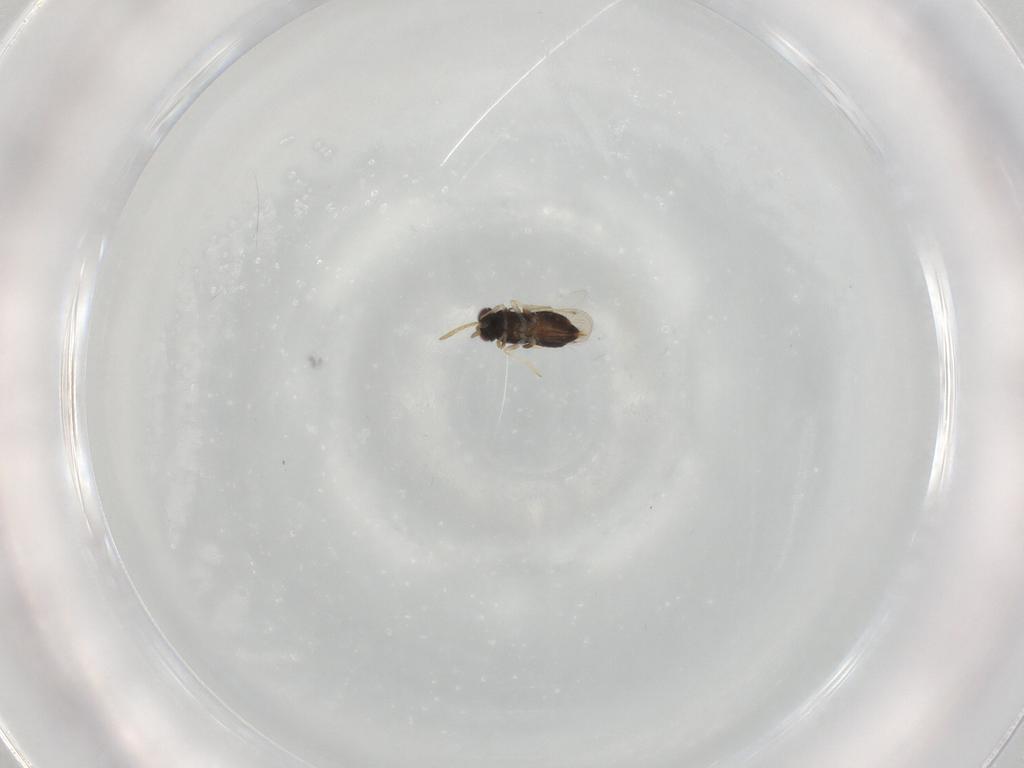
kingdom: Animalia
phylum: Arthropoda
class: Insecta
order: Hymenoptera
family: Aphelinidae
